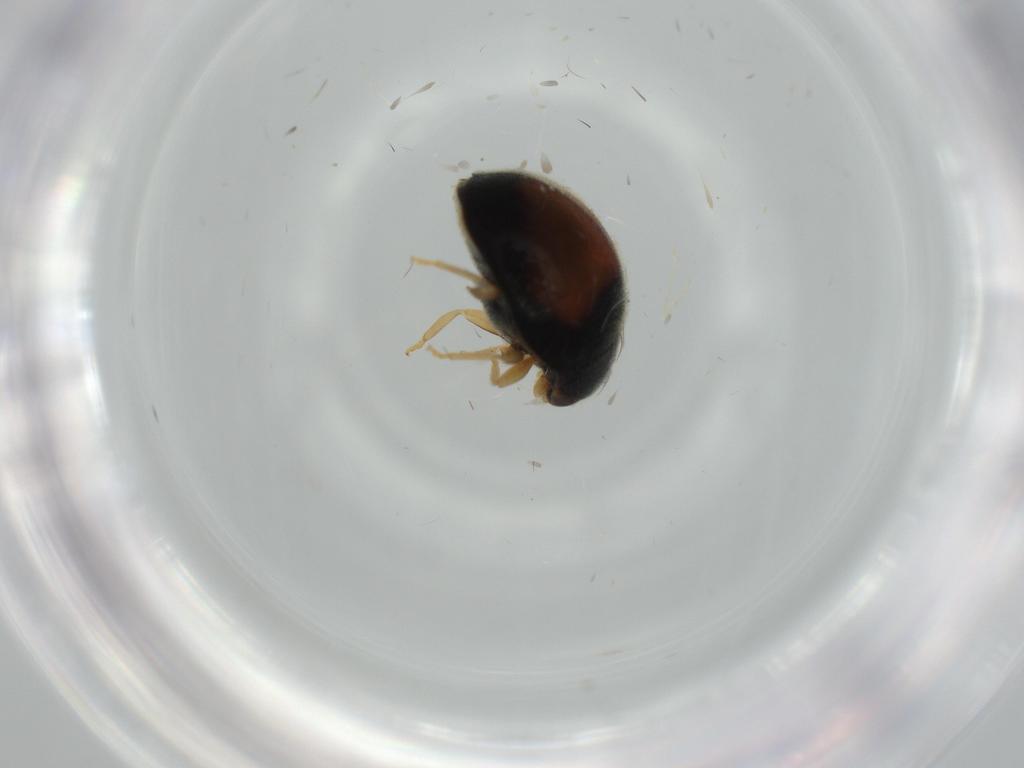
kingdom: Animalia
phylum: Arthropoda
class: Insecta
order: Coleoptera
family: Coccinellidae
